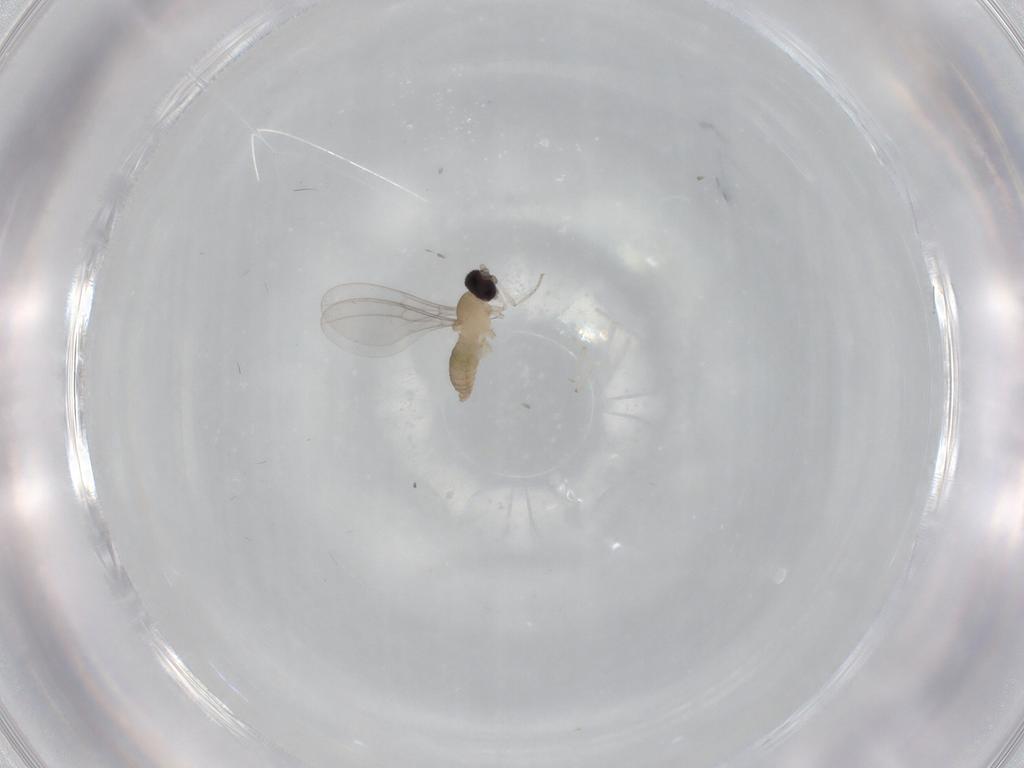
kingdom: Animalia
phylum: Arthropoda
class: Insecta
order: Diptera
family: Cecidomyiidae
